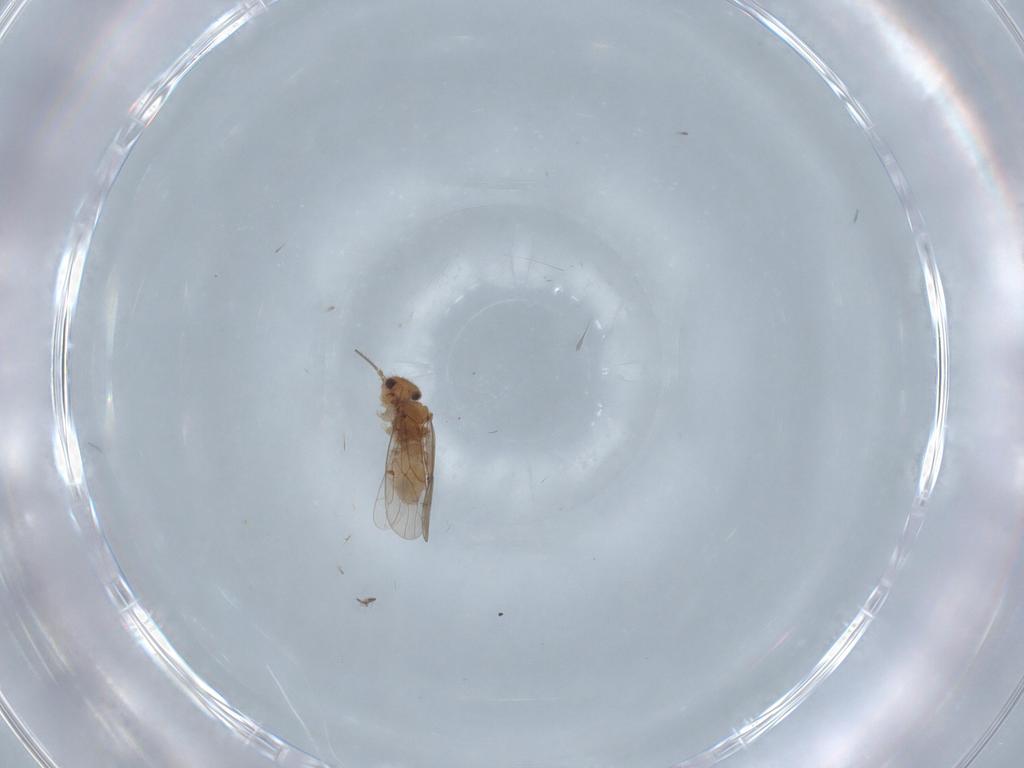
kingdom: Animalia
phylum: Arthropoda
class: Insecta
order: Psocodea
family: Ectopsocidae
